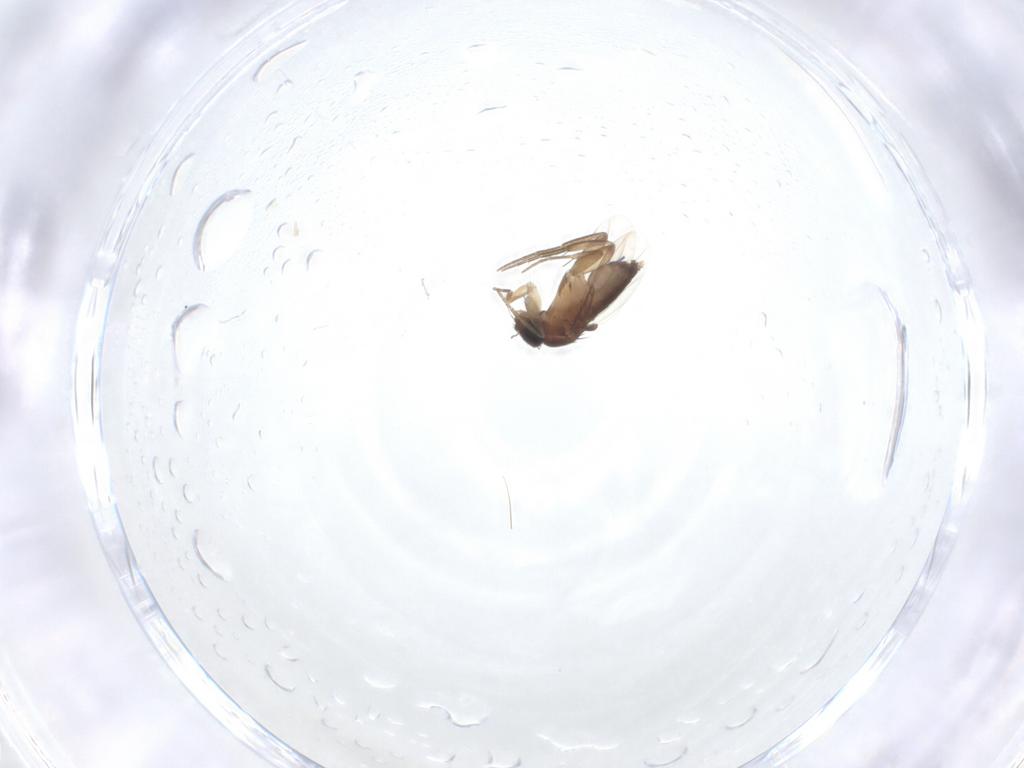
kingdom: Animalia
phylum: Arthropoda
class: Insecta
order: Diptera
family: Phoridae
